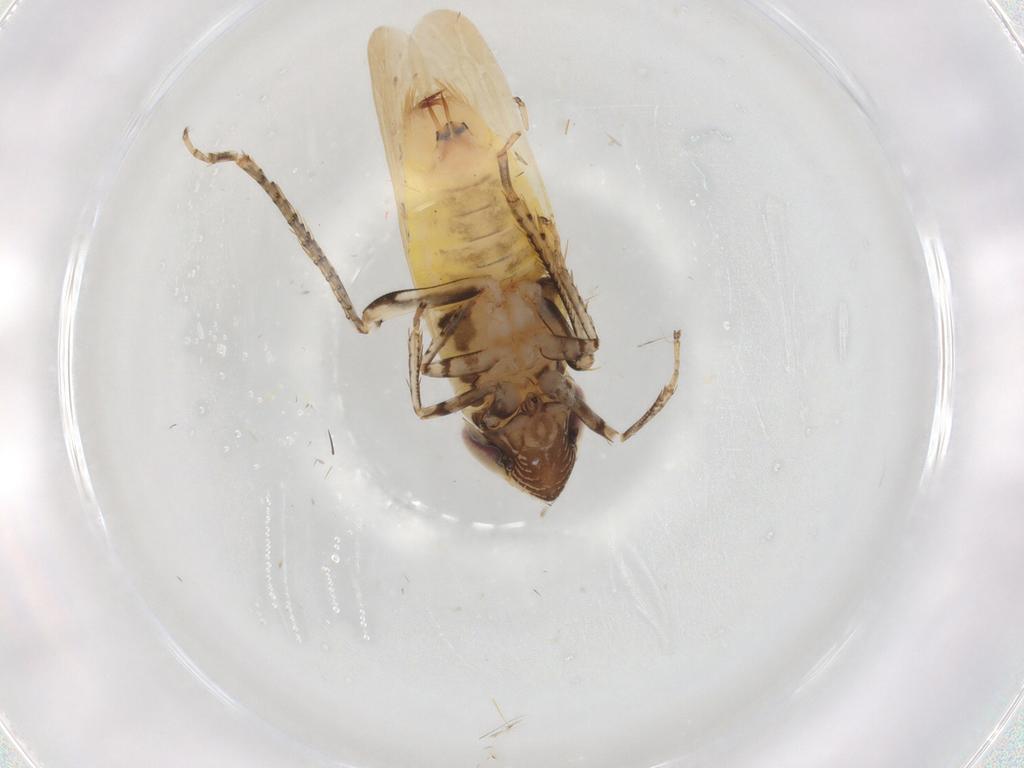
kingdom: Animalia
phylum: Arthropoda
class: Insecta
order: Hemiptera
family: Cicadellidae
